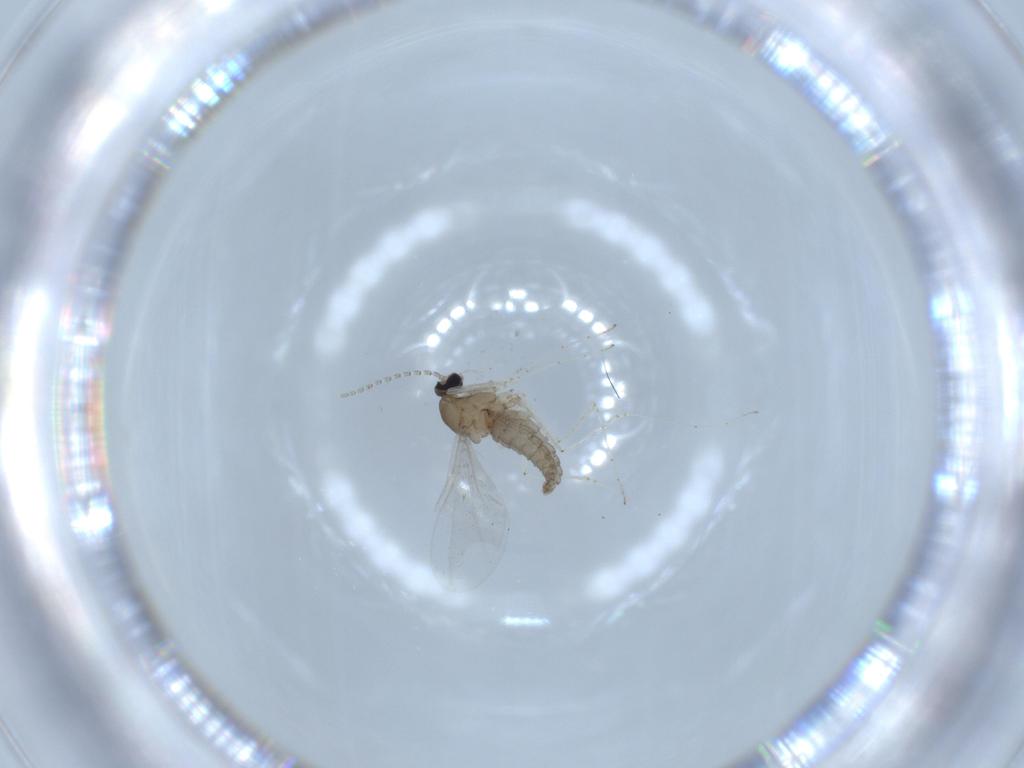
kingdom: Animalia
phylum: Arthropoda
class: Insecta
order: Diptera
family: Cecidomyiidae
